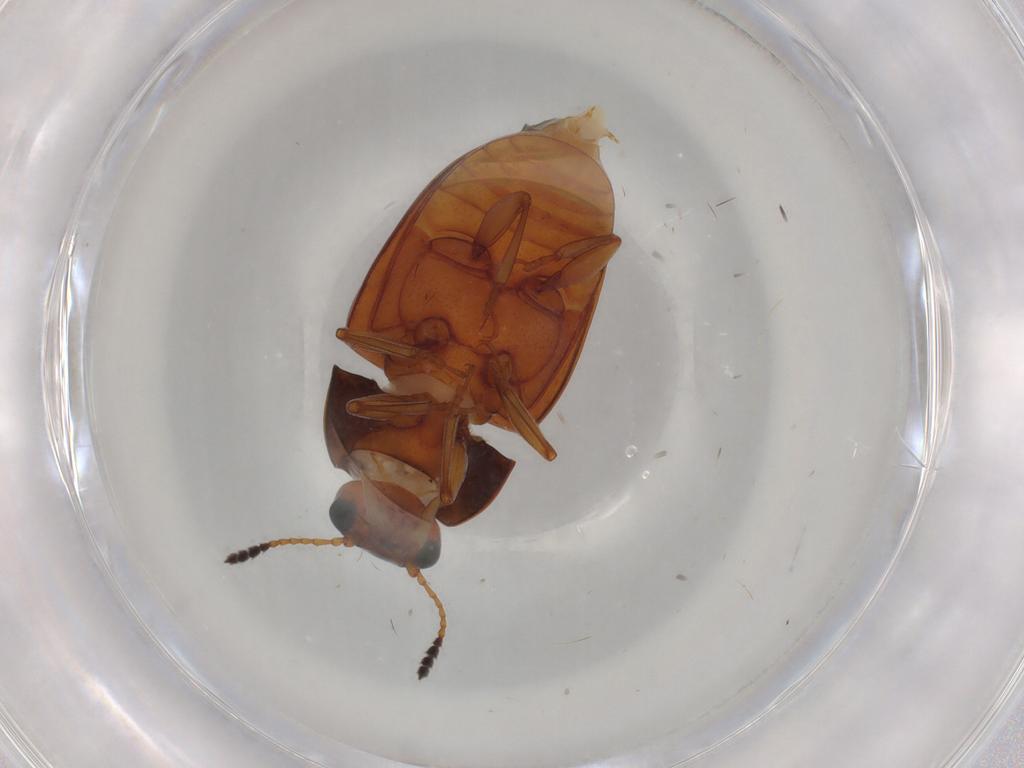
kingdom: Animalia
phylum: Arthropoda
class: Insecta
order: Coleoptera
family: Erotylidae
